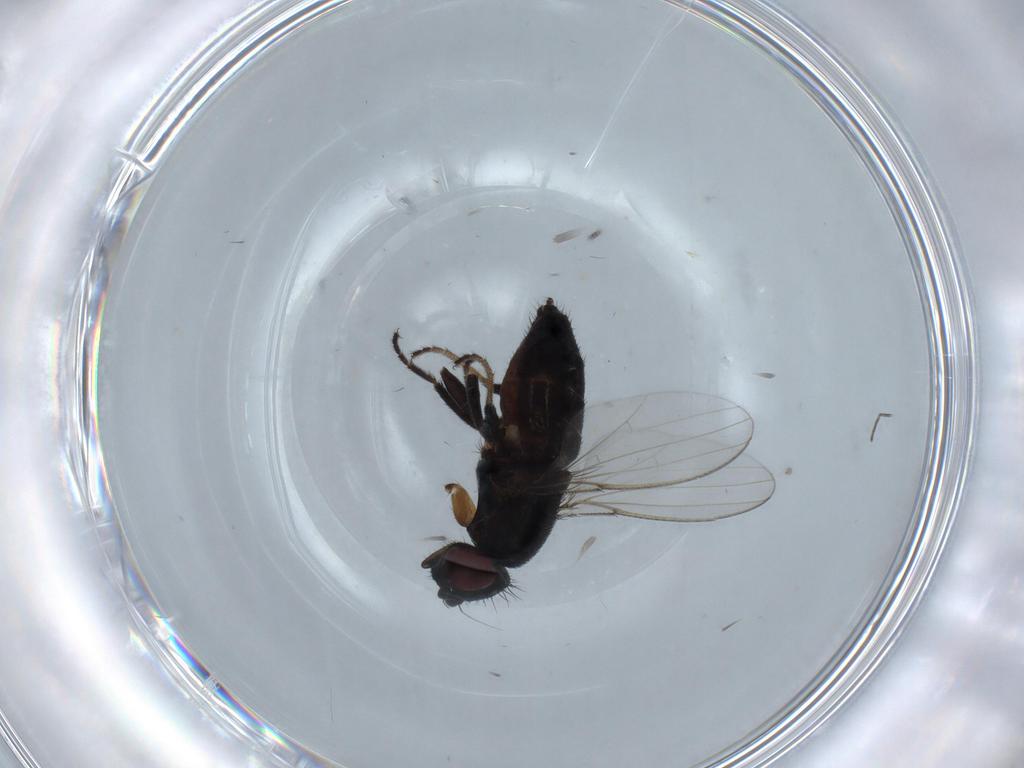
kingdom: Animalia
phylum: Arthropoda
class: Insecta
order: Diptera
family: Milichiidae
